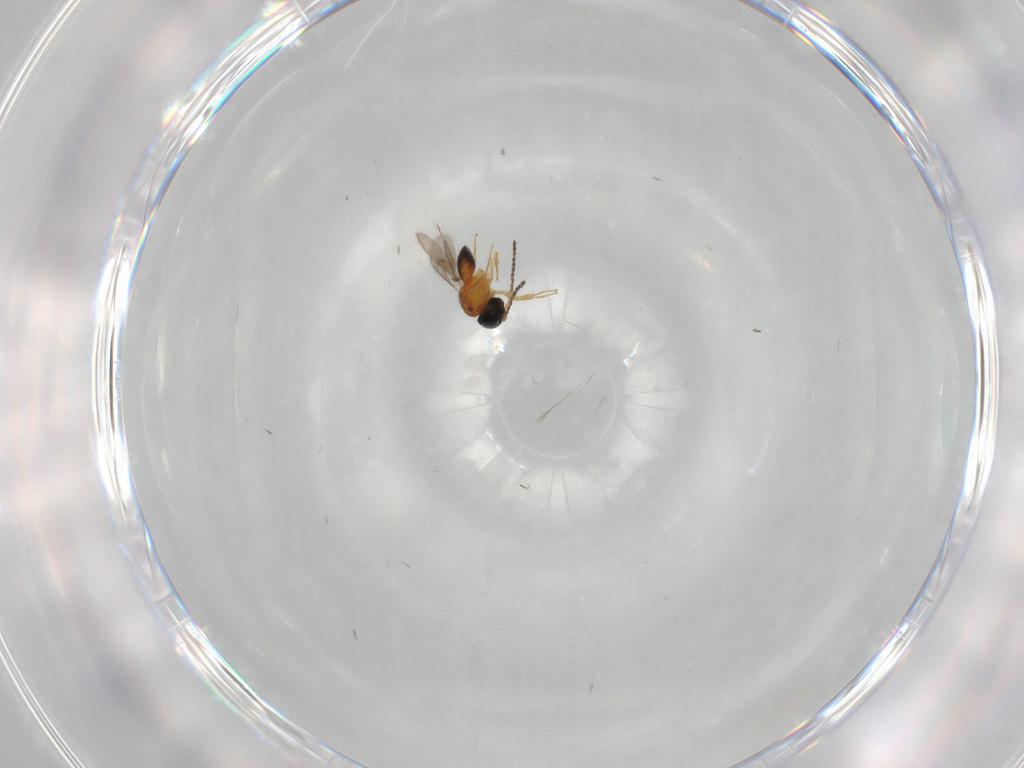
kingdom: Animalia
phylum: Arthropoda
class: Insecta
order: Hymenoptera
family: Scelionidae
